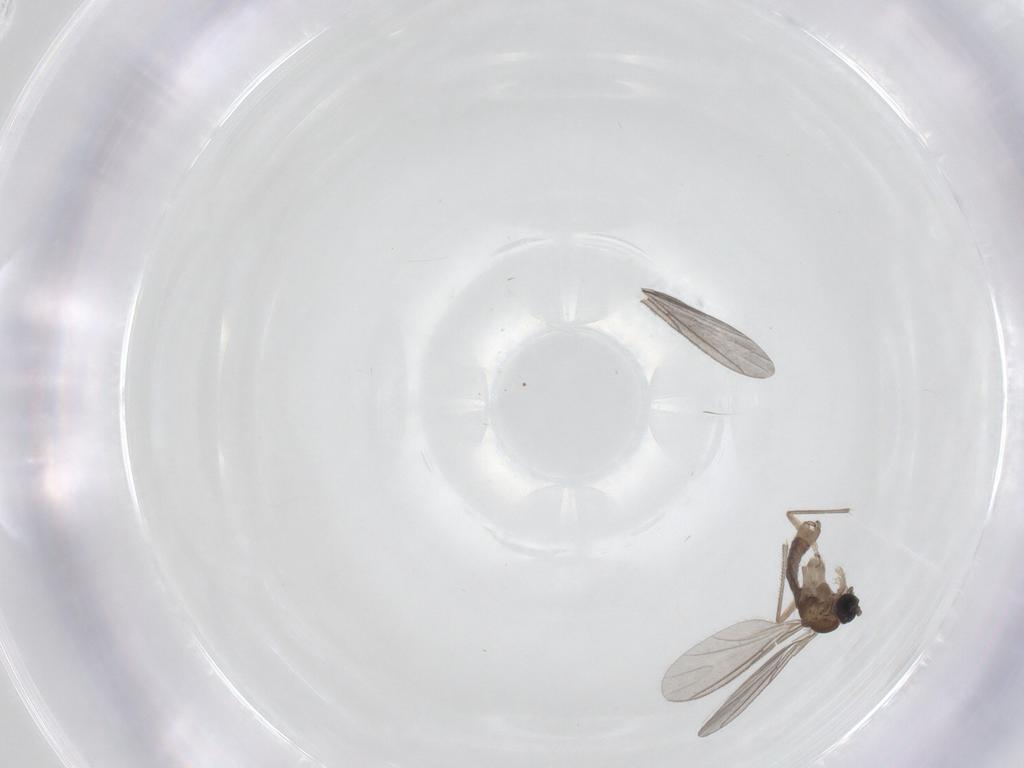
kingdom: Animalia
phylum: Arthropoda
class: Insecta
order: Diptera
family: Sciaridae
